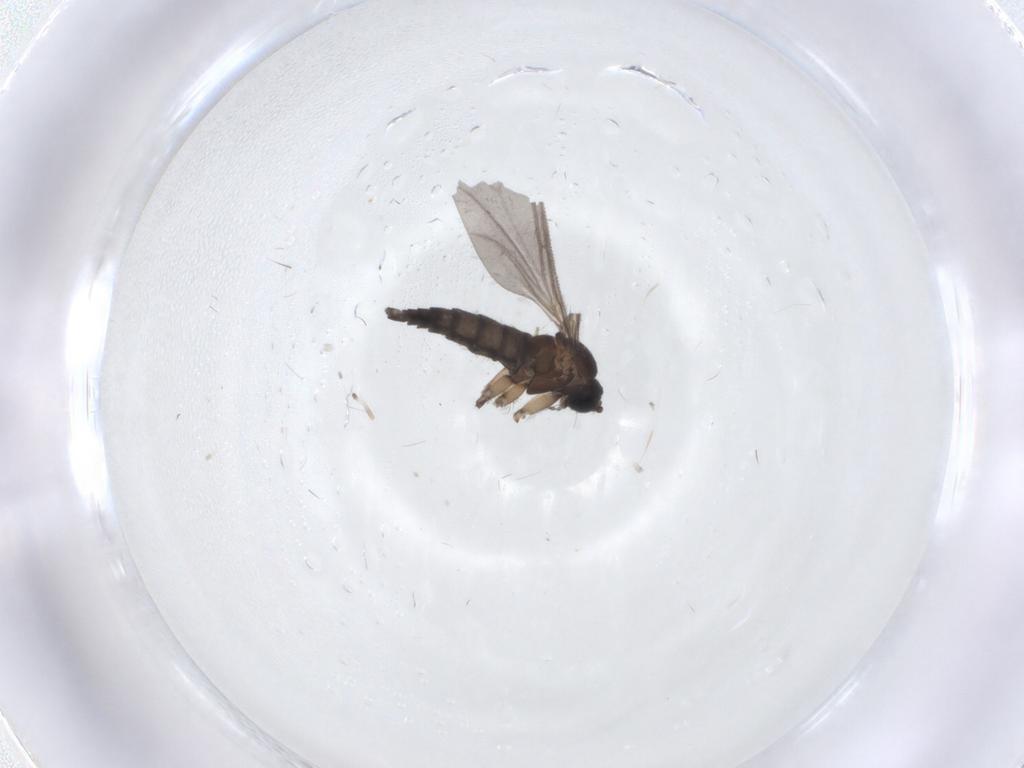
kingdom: Animalia
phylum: Arthropoda
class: Insecta
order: Diptera
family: Sciaridae
